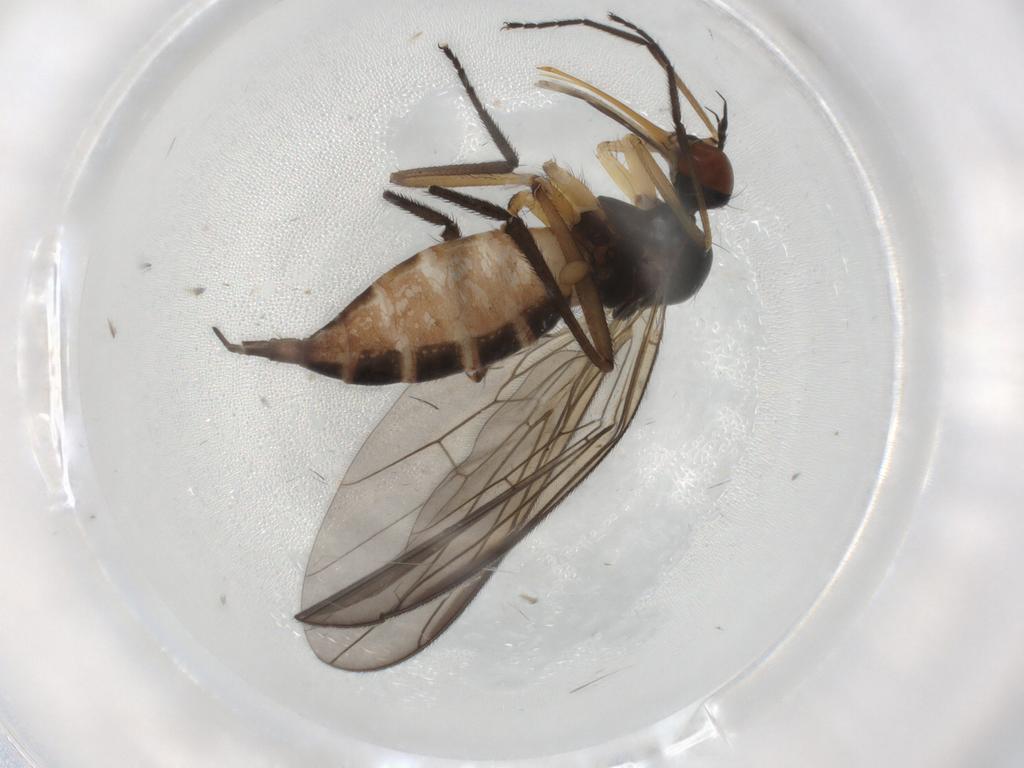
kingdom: Animalia
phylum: Arthropoda
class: Insecta
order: Diptera
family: Empididae
